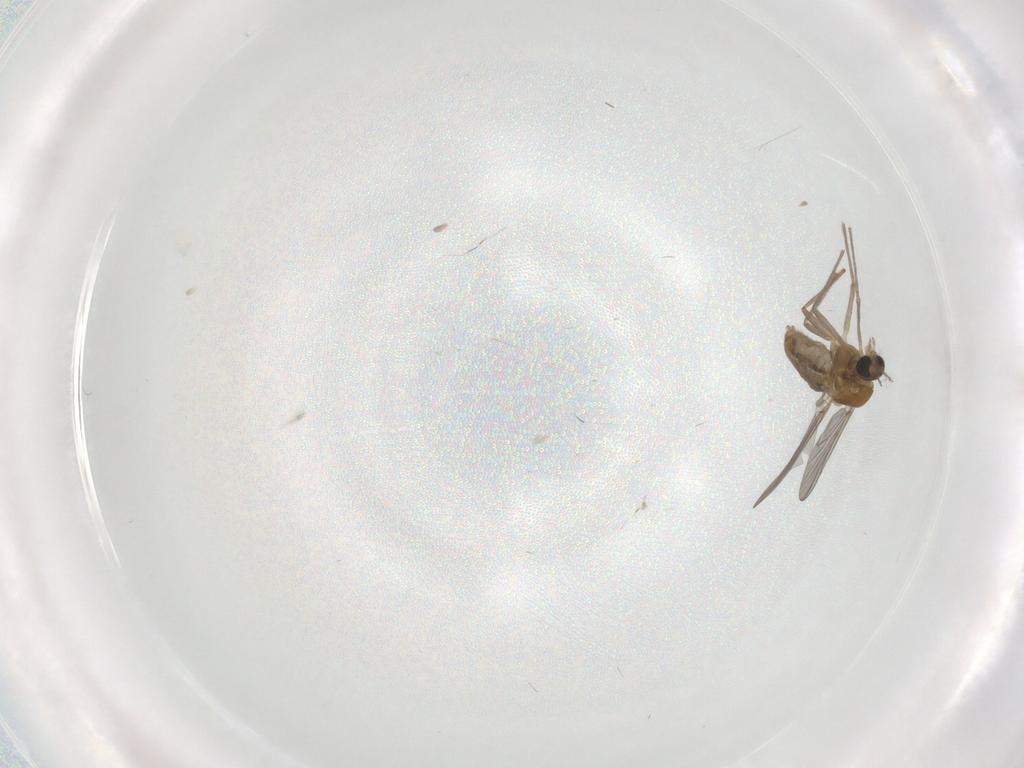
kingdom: Animalia
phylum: Arthropoda
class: Insecta
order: Diptera
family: Chironomidae
